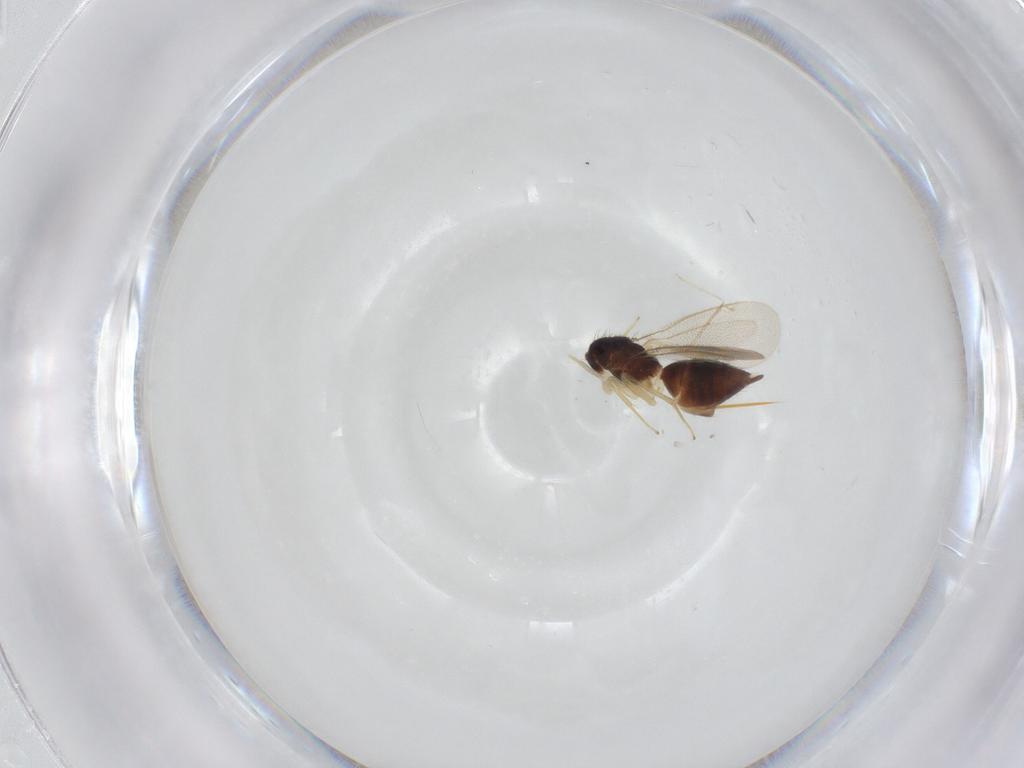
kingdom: Animalia
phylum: Arthropoda
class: Insecta
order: Hymenoptera
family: Eulophidae
